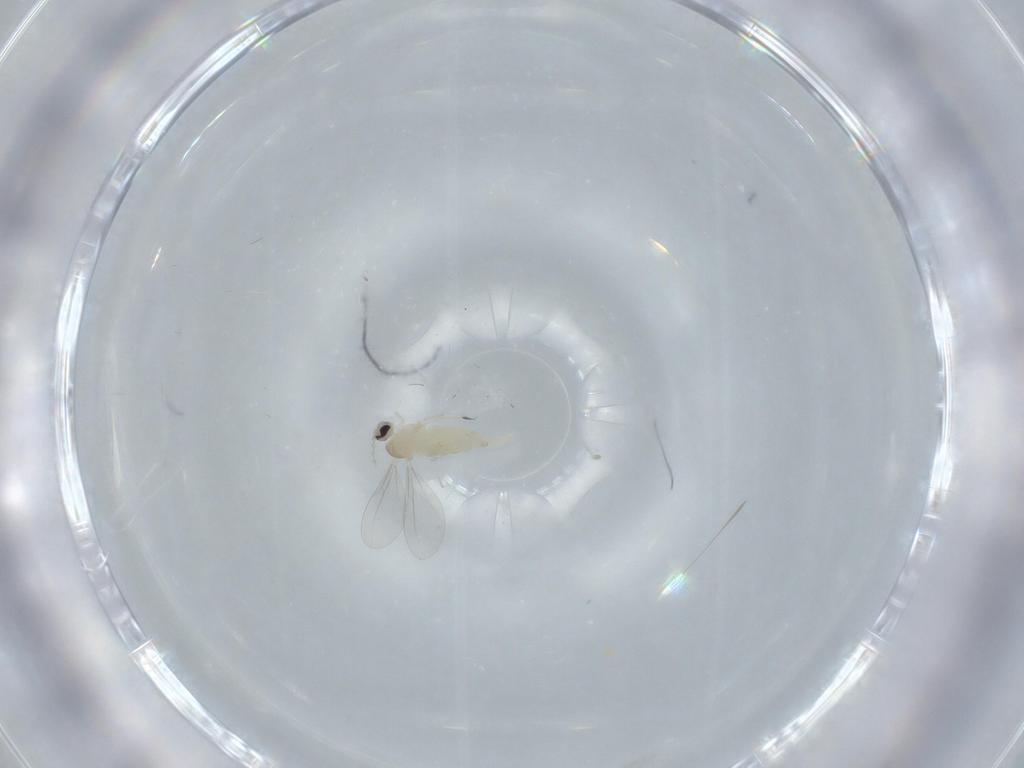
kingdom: Animalia
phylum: Arthropoda
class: Insecta
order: Diptera
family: Cecidomyiidae
